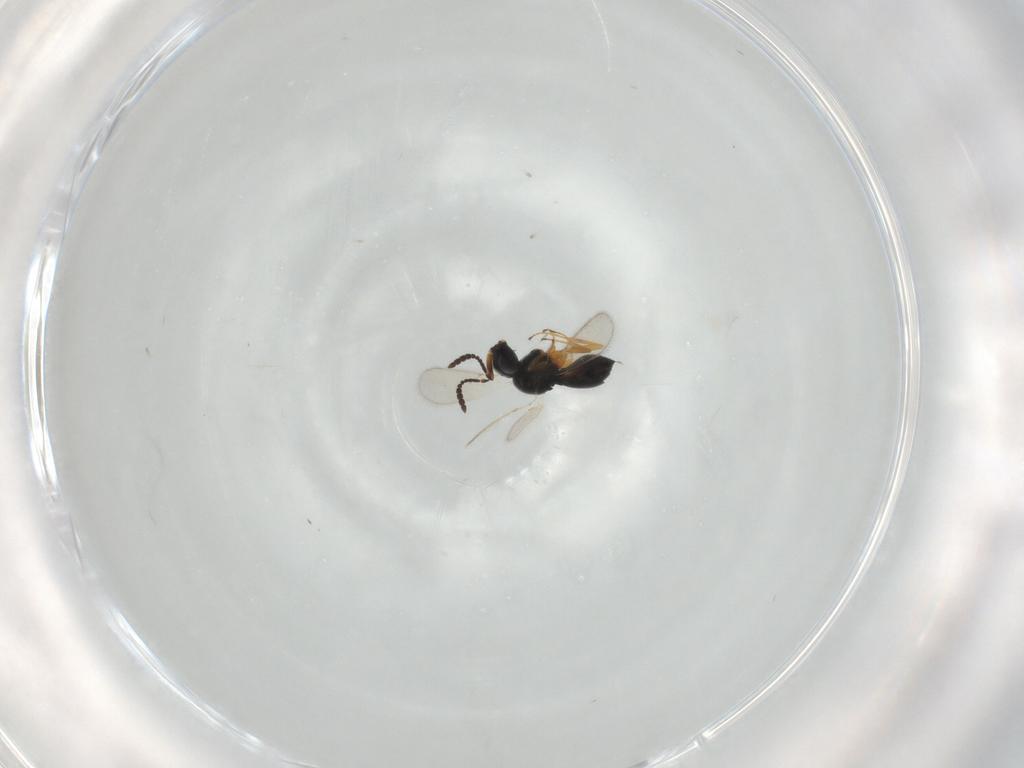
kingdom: Animalia
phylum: Arthropoda
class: Insecta
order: Hymenoptera
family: Scelionidae
